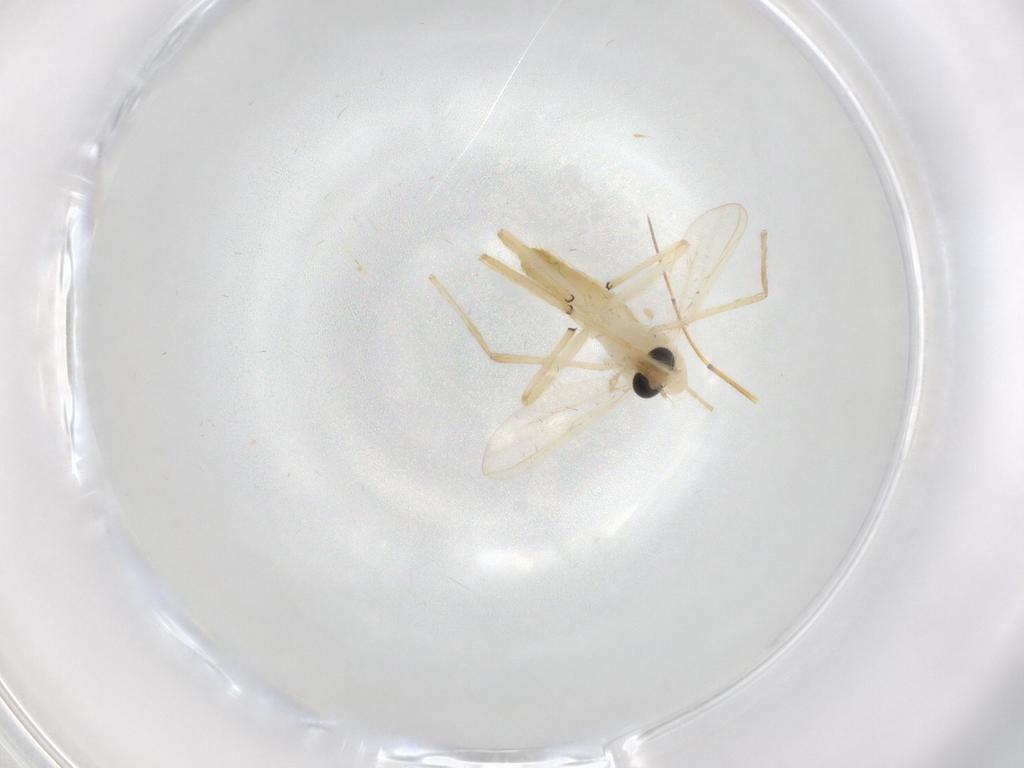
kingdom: Animalia
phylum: Arthropoda
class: Insecta
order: Diptera
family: Chironomidae
